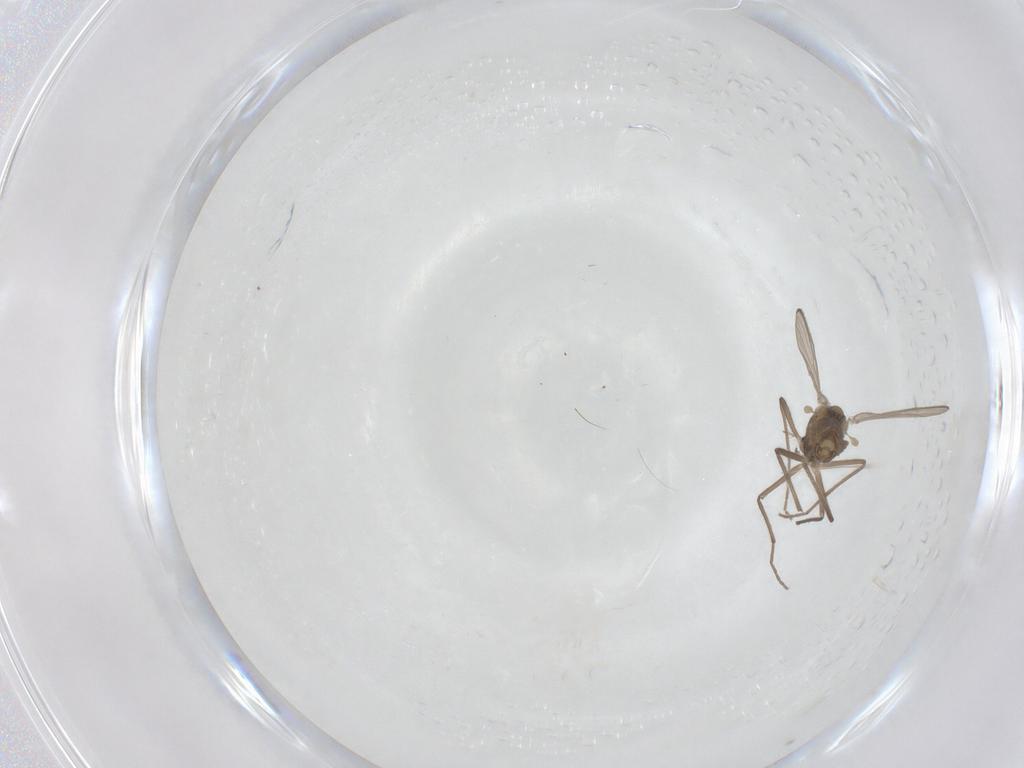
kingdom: Animalia
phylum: Arthropoda
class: Insecta
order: Diptera
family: Chironomidae
